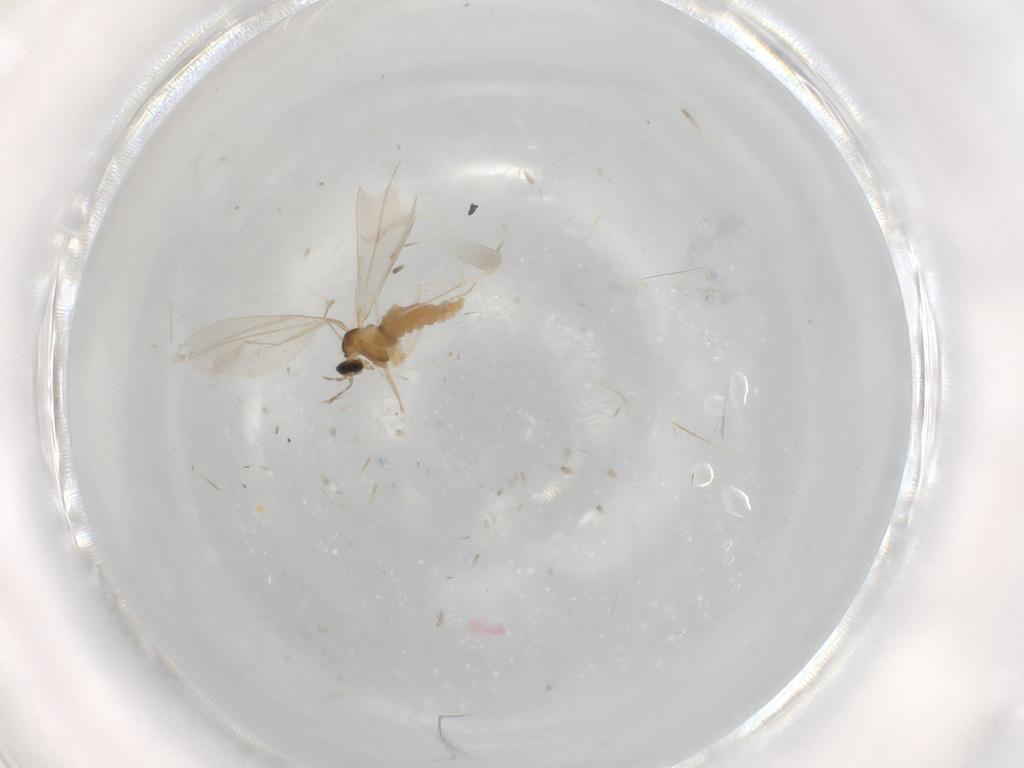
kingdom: Animalia
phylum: Arthropoda
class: Insecta
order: Diptera
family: Cecidomyiidae
